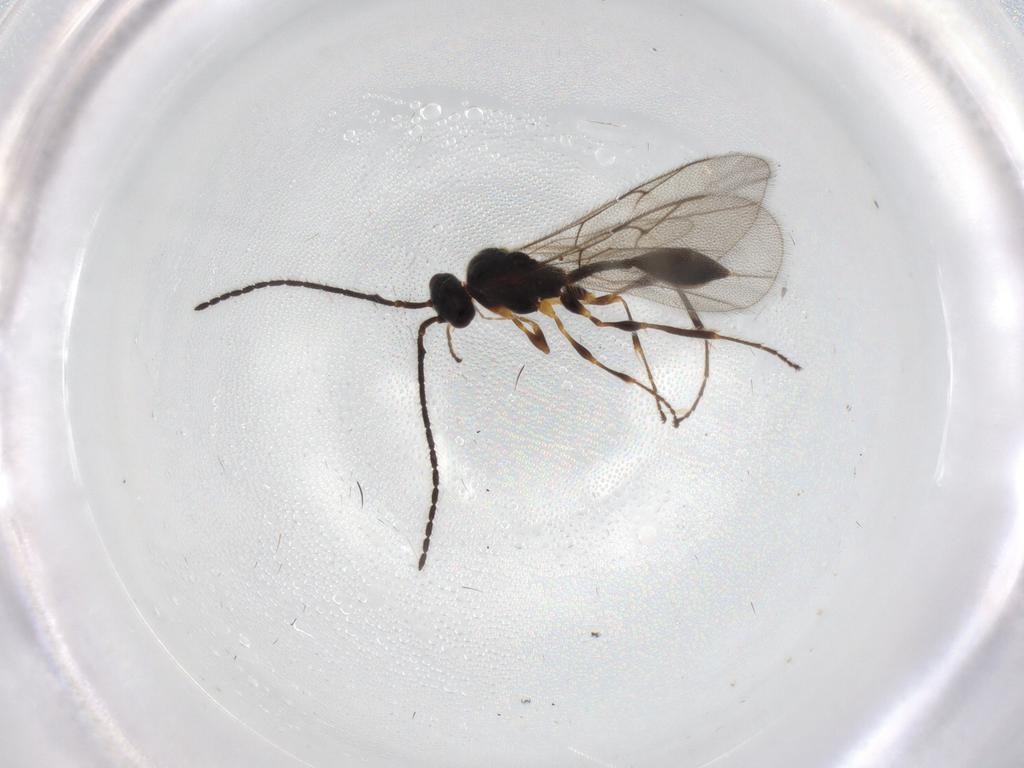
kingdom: Animalia
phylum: Arthropoda
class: Insecta
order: Hymenoptera
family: Diapriidae
